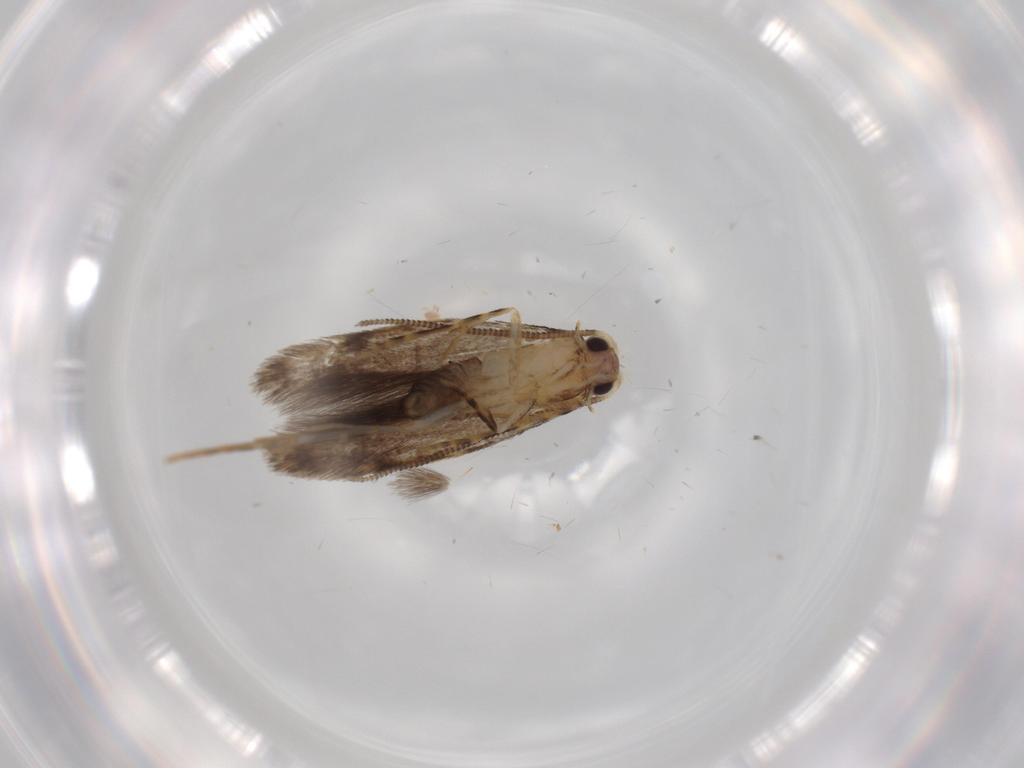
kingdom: Animalia
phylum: Arthropoda
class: Insecta
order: Lepidoptera
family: Tineidae
